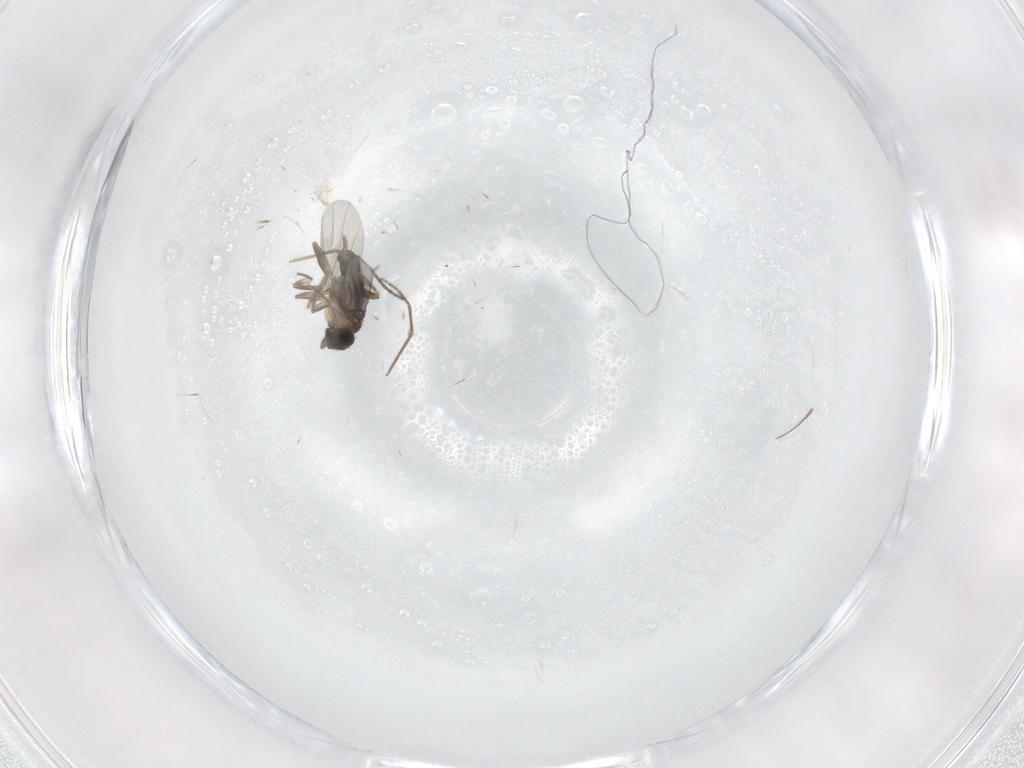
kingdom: Animalia
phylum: Arthropoda
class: Insecta
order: Diptera
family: Chironomidae
